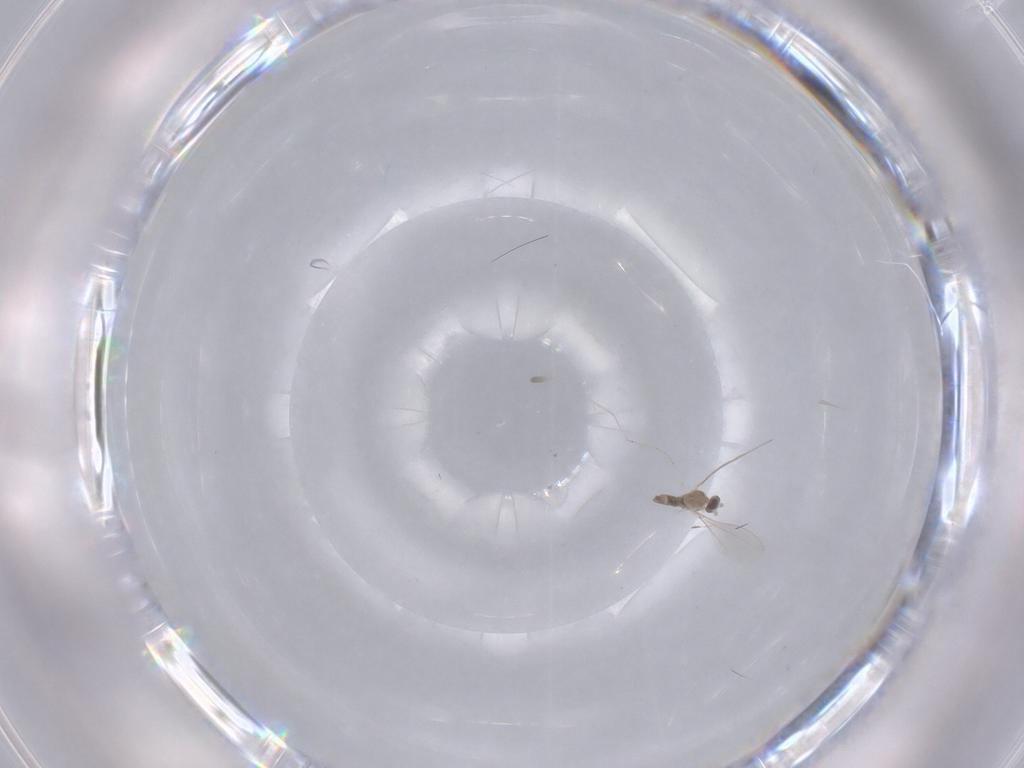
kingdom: Animalia
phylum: Arthropoda
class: Insecta
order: Diptera
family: Cecidomyiidae
